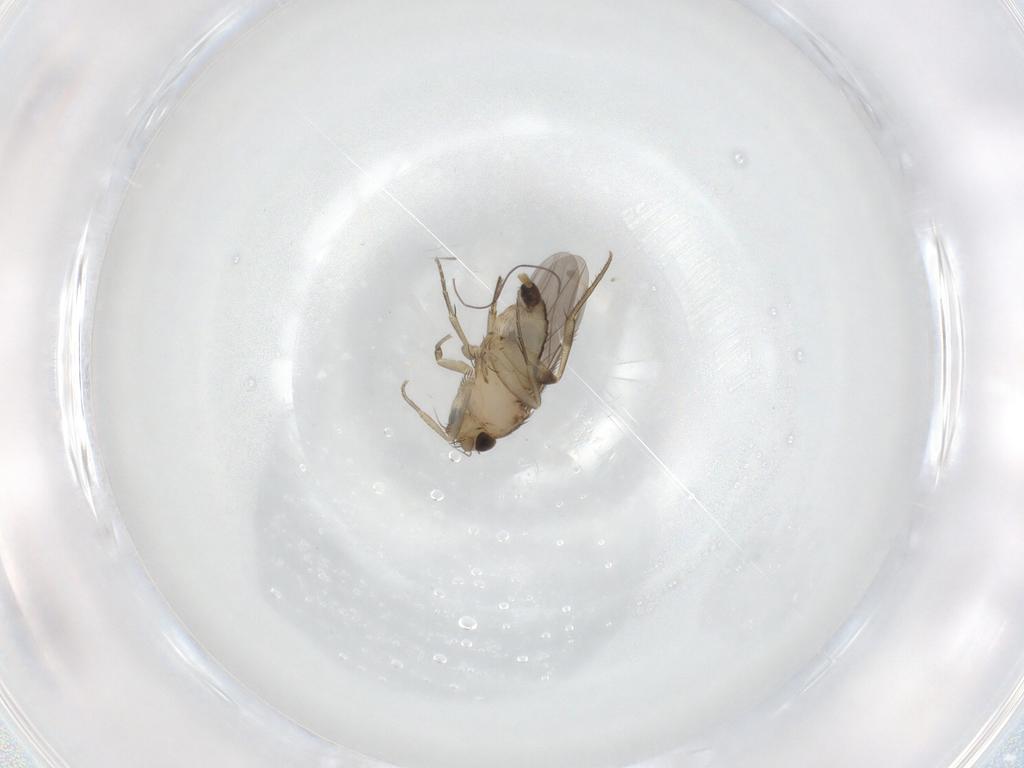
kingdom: Animalia
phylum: Arthropoda
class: Insecta
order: Diptera
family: Phoridae
